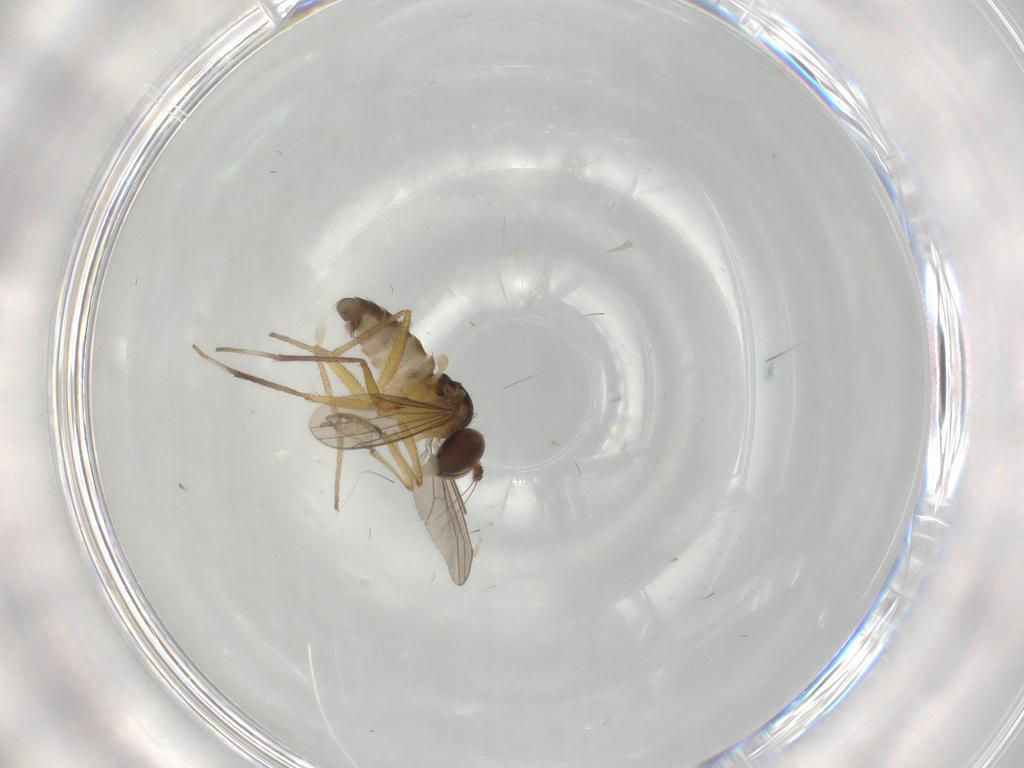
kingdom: Animalia
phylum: Arthropoda
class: Insecta
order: Diptera
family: Dolichopodidae
